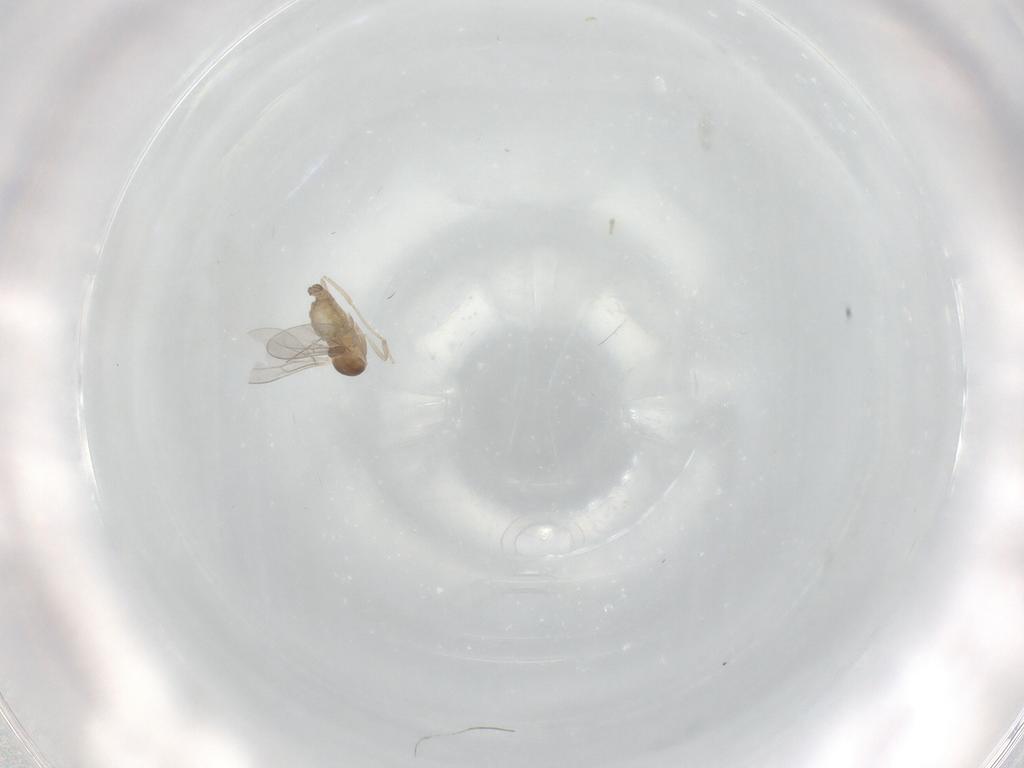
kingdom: Animalia
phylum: Arthropoda
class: Insecta
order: Diptera
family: Cecidomyiidae
